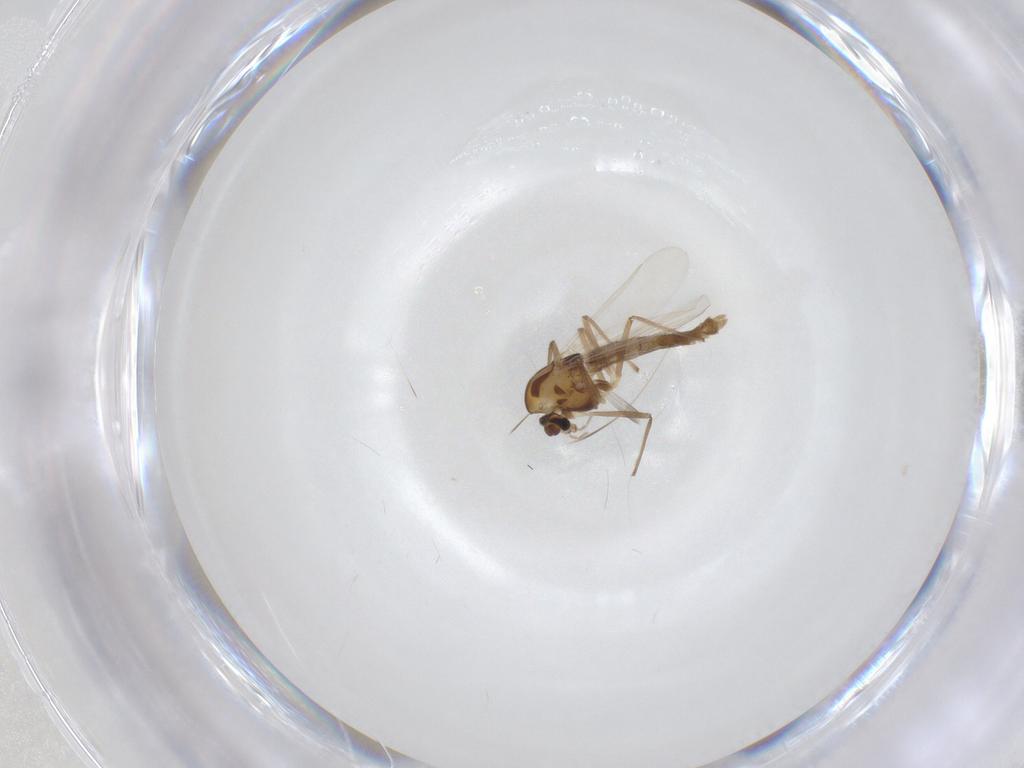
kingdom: Animalia
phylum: Arthropoda
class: Insecta
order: Diptera
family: Chironomidae
